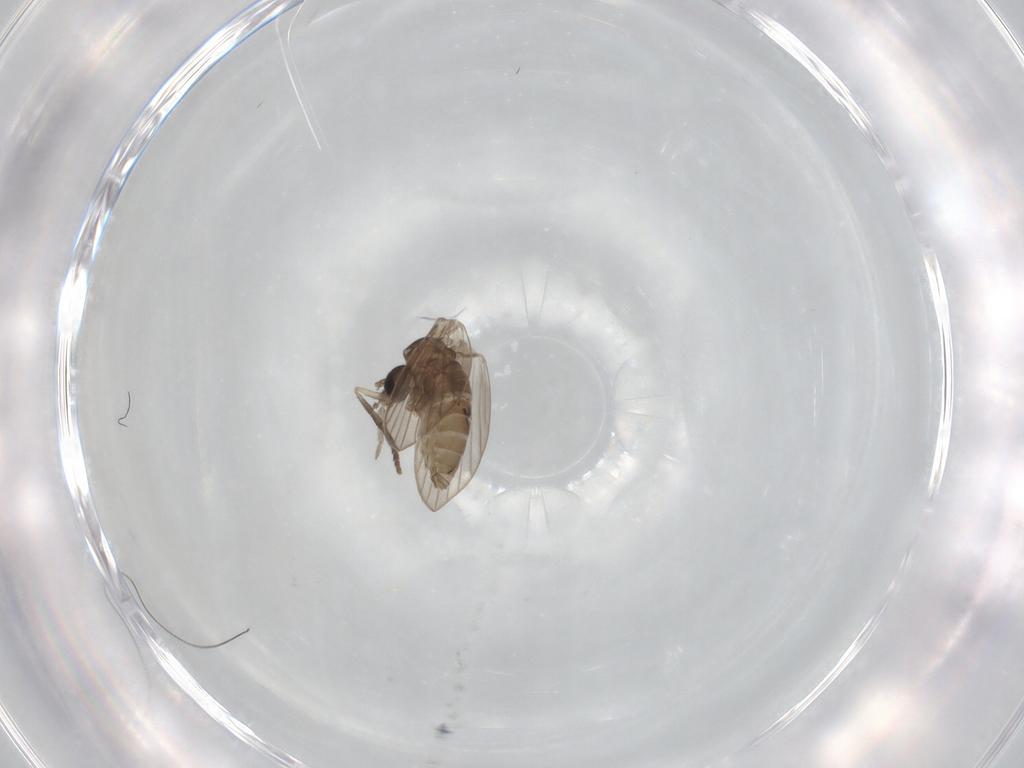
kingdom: Animalia
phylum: Arthropoda
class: Insecta
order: Diptera
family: Psychodidae
